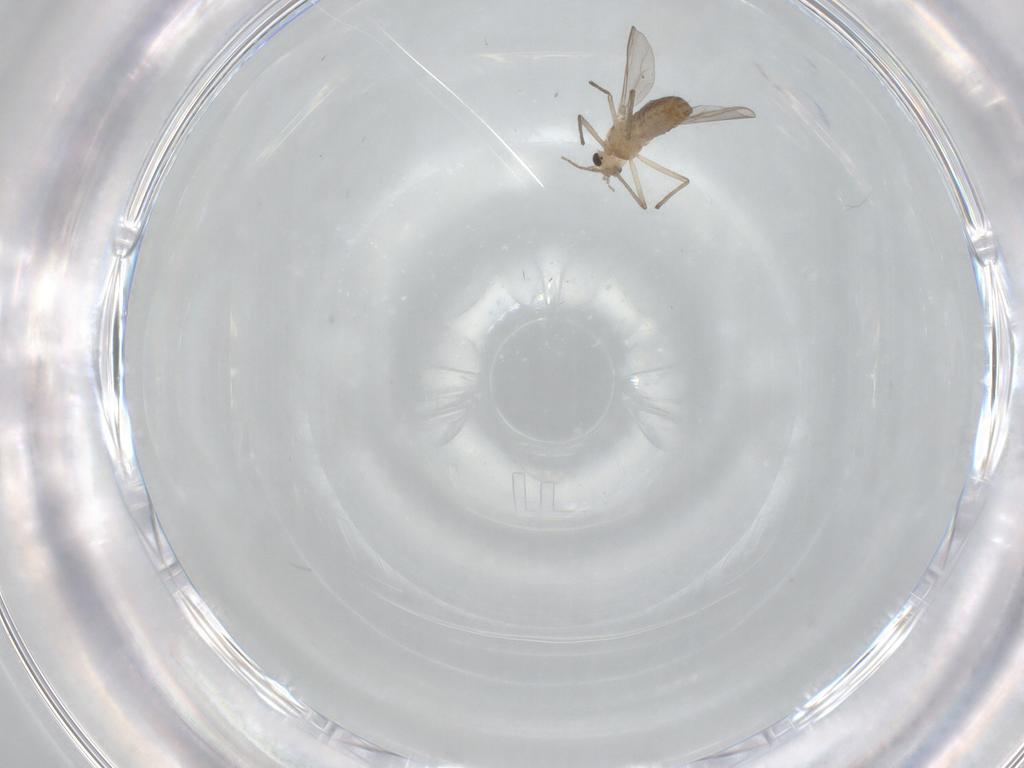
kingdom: Animalia
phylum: Arthropoda
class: Insecta
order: Diptera
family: Chironomidae
